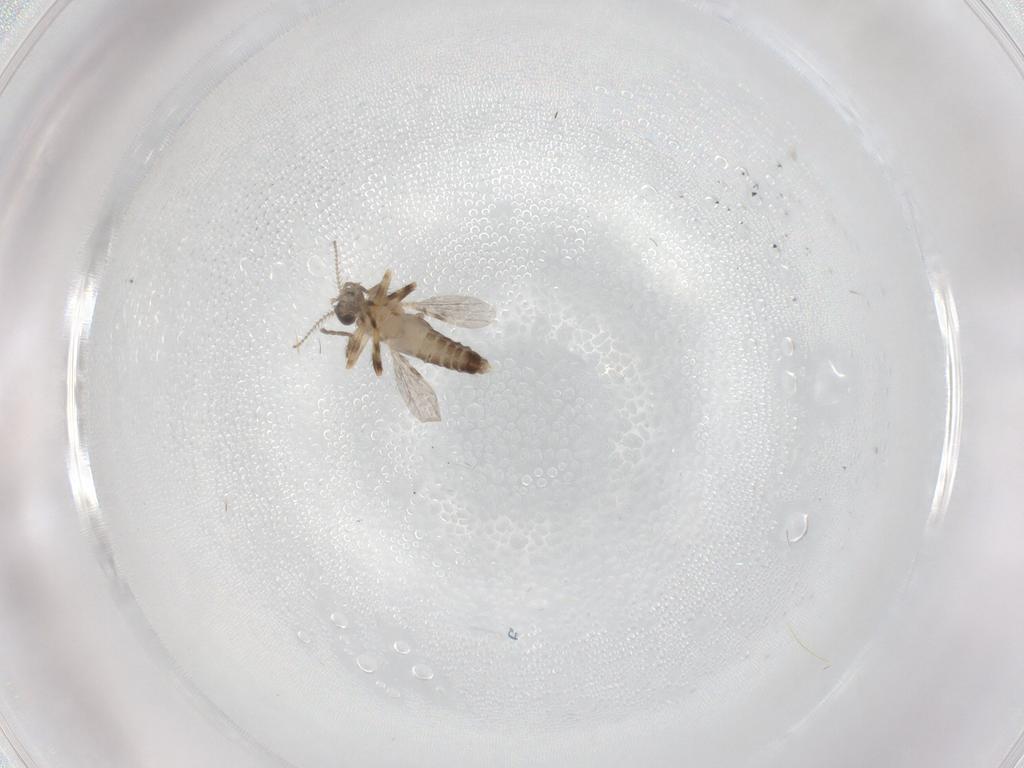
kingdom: Animalia
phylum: Arthropoda
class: Insecta
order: Diptera
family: Ceratopogonidae
